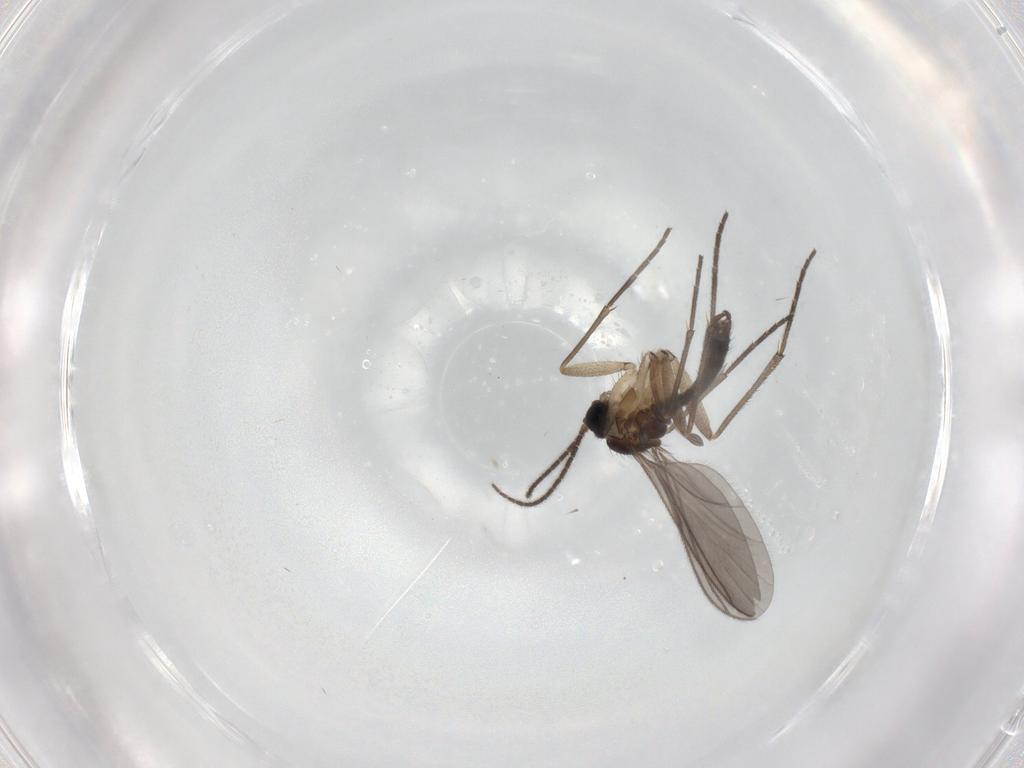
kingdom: Animalia
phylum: Arthropoda
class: Insecta
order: Diptera
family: Sciaridae
